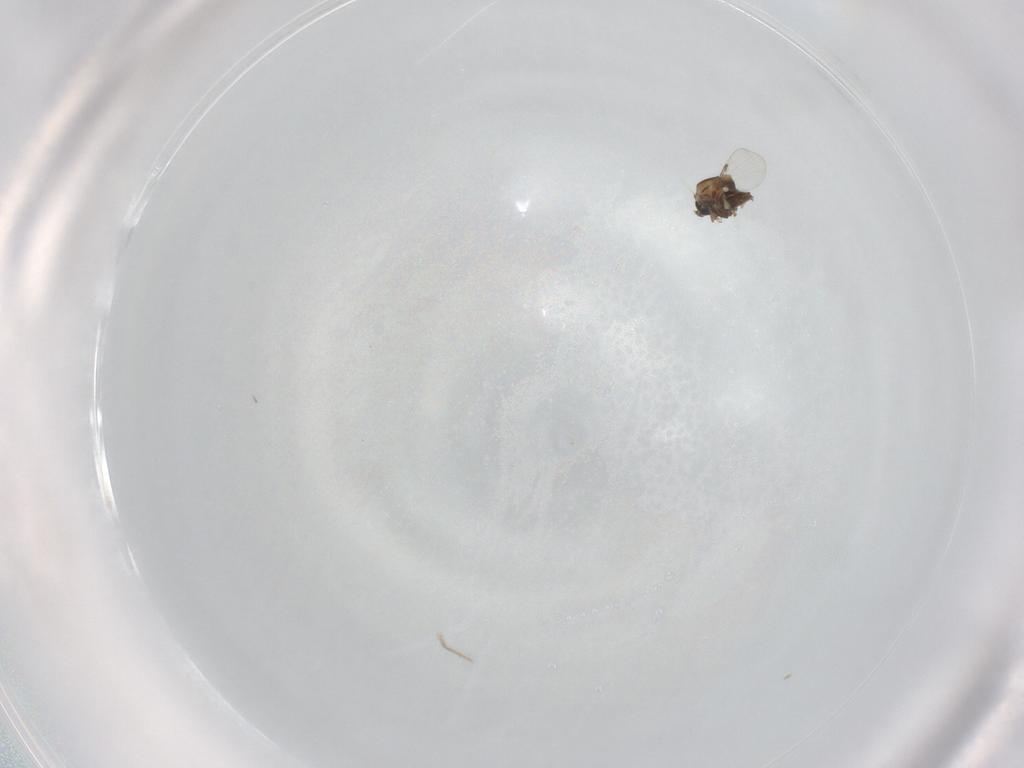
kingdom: Animalia
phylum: Arthropoda
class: Insecta
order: Diptera
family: Ceratopogonidae
